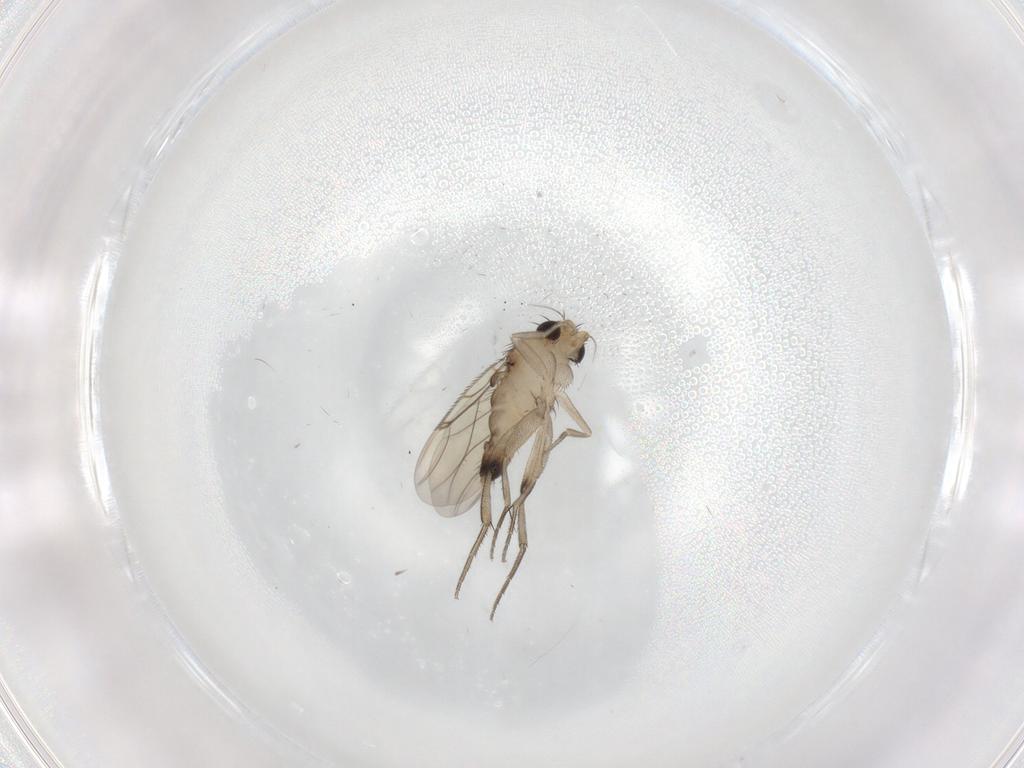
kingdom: Animalia
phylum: Arthropoda
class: Insecta
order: Diptera
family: Phoridae
